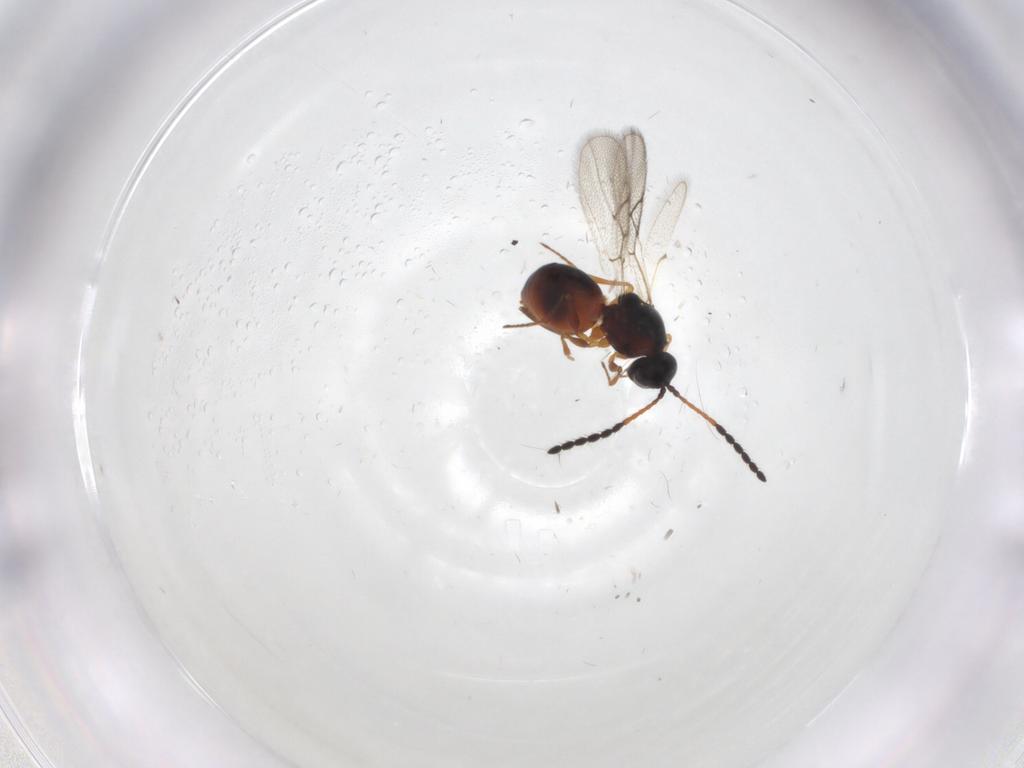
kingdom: Animalia
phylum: Arthropoda
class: Insecta
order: Hymenoptera
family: Figitidae
